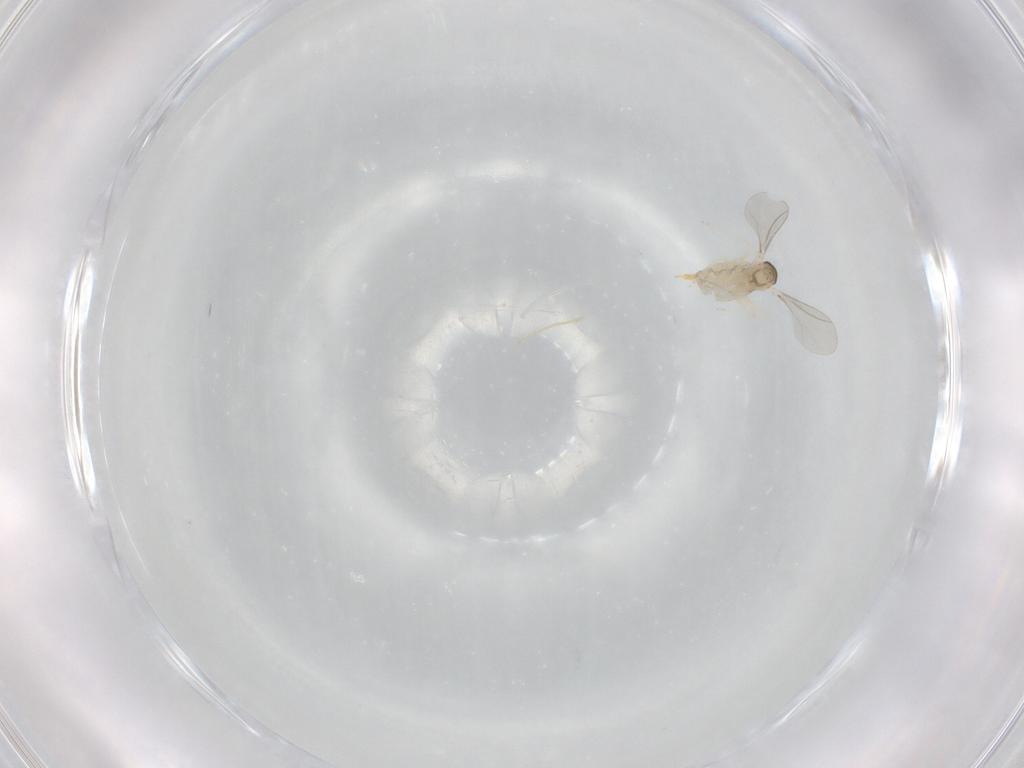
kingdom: Animalia
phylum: Arthropoda
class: Insecta
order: Diptera
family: Cecidomyiidae
